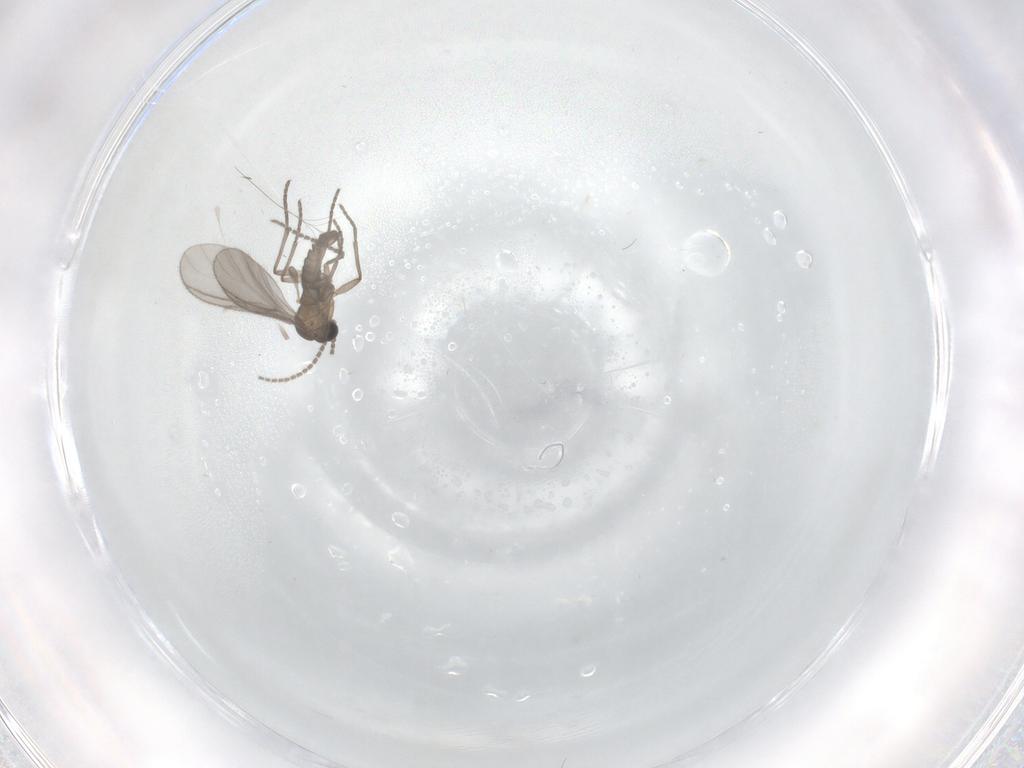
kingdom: Animalia
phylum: Arthropoda
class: Insecta
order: Diptera
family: Sciaridae
